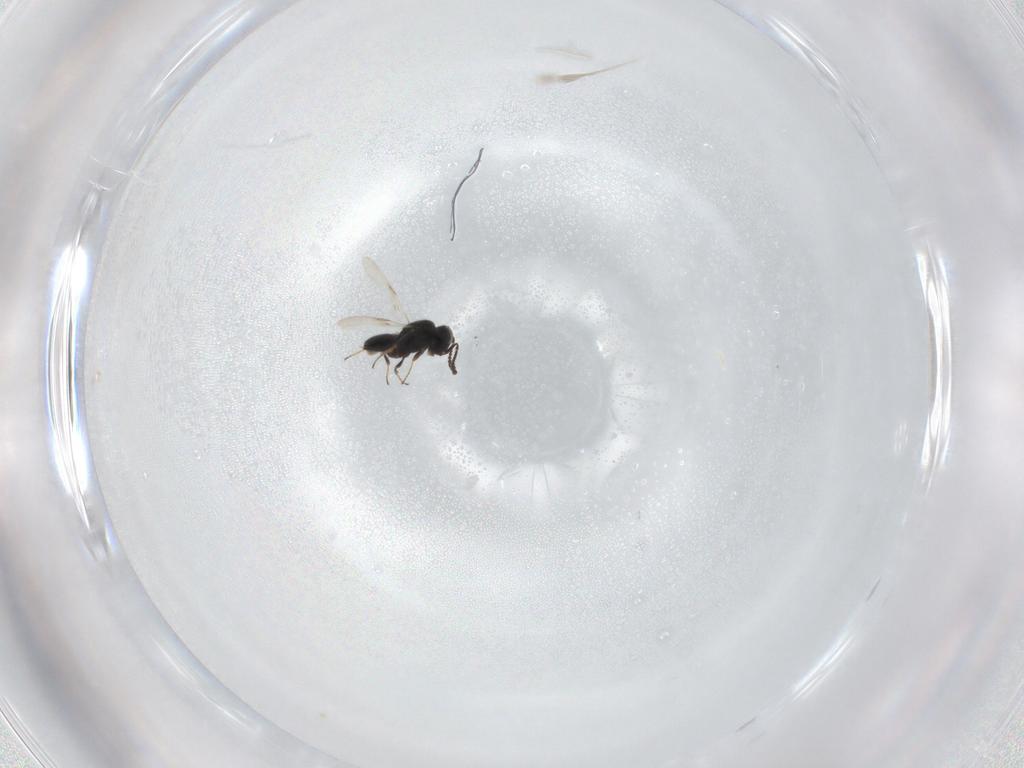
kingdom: Animalia
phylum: Arthropoda
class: Insecta
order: Hymenoptera
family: Scelionidae
